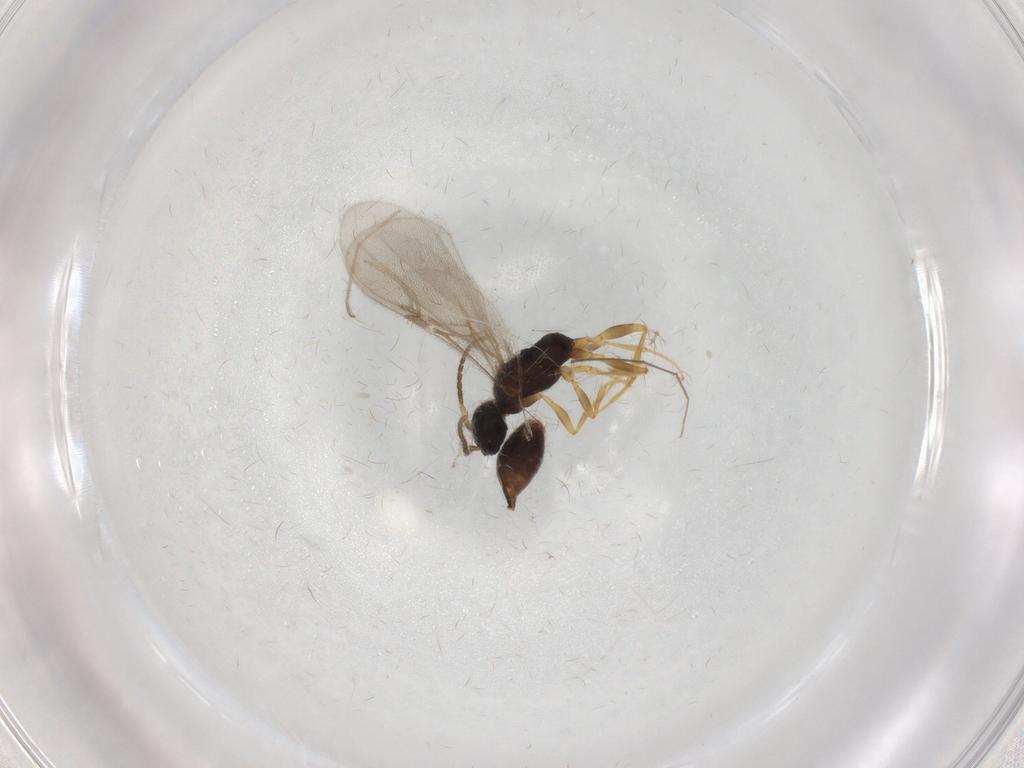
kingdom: Animalia
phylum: Arthropoda
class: Insecta
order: Hymenoptera
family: Bethylidae
